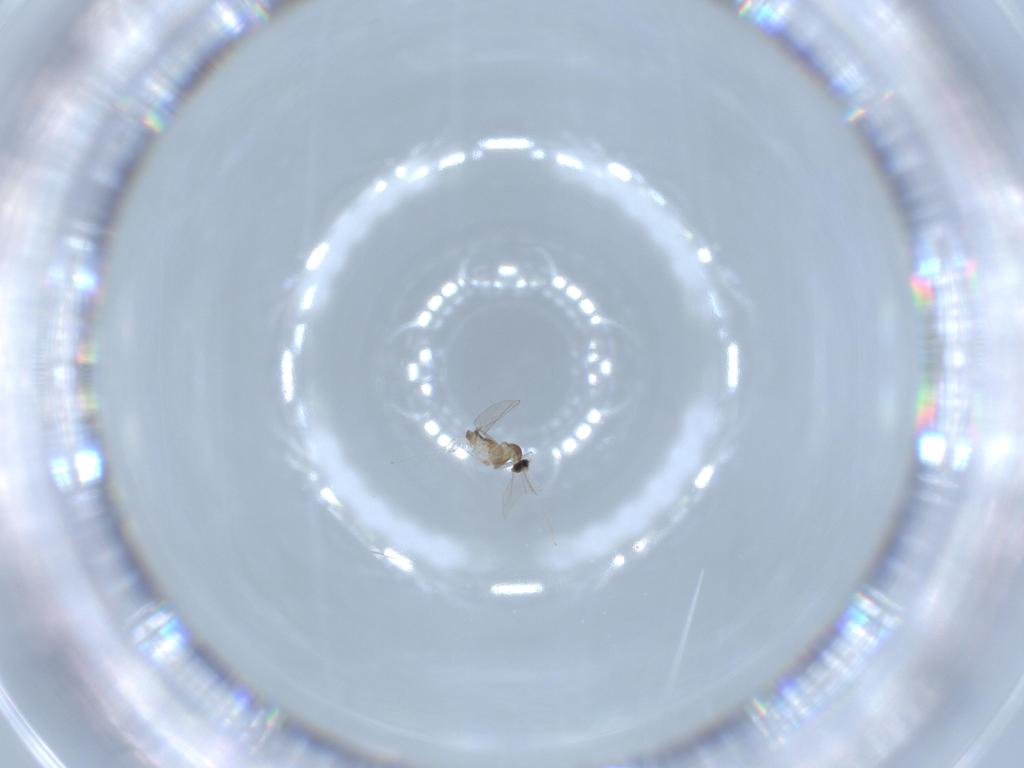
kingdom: Animalia
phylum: Arthropoda
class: Insecta
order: Diptera
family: Cecidomyiidae
